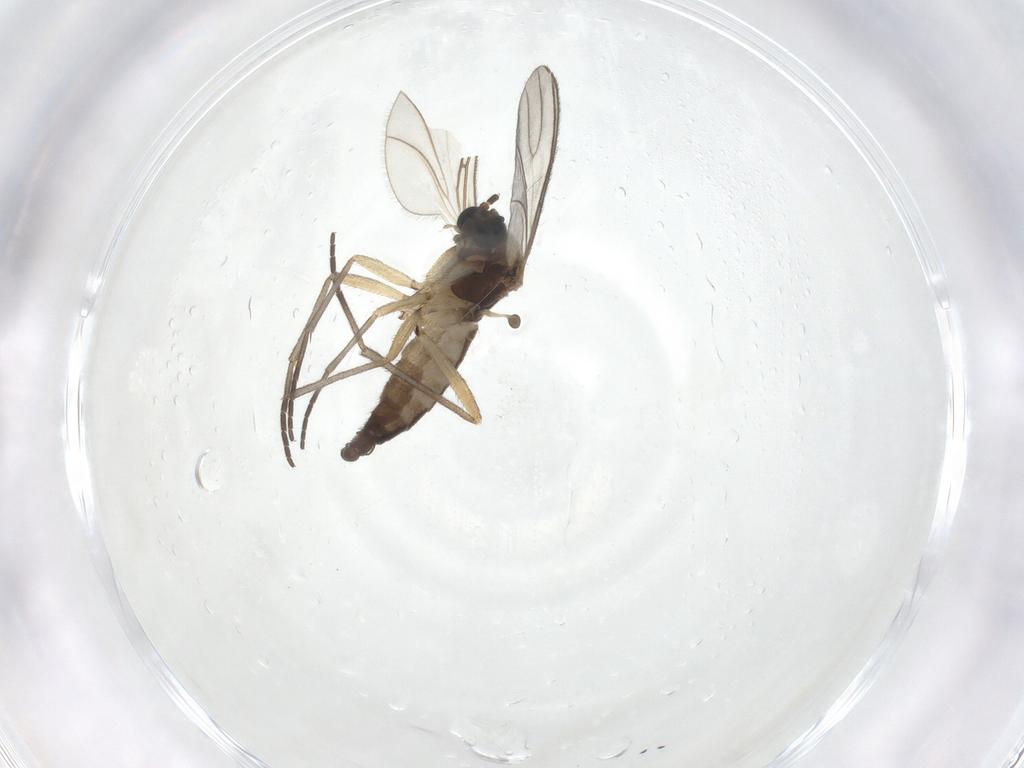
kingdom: Animalia
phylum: Arthropoda
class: Insecta
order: Diptera
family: Sciaridae
